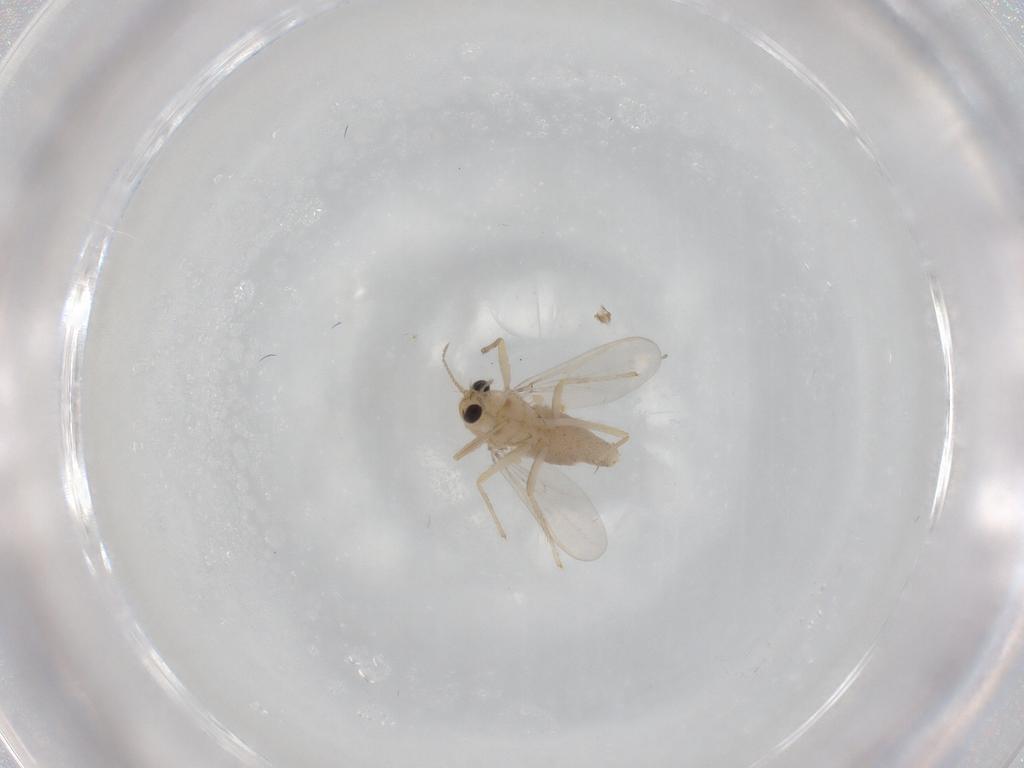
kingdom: Animalia
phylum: Arthropoda
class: Insecta
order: Diptera
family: Chironomidae
